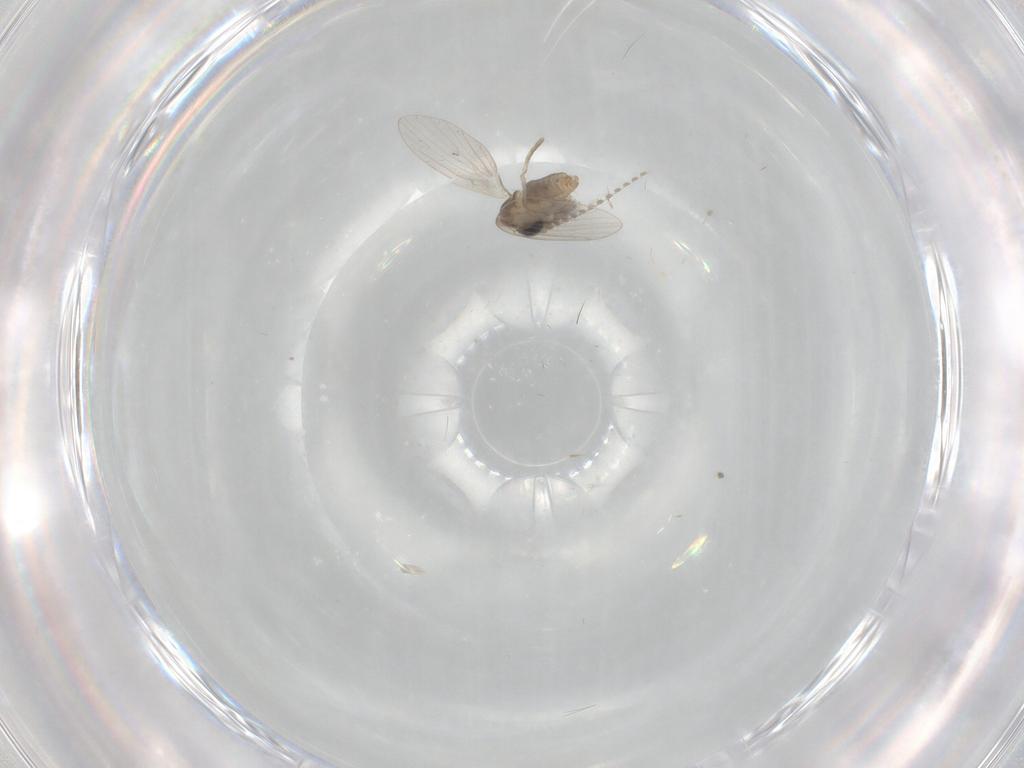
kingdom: Animalia
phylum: Arthropoda
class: Insecta
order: Diptera
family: Psychodidae
